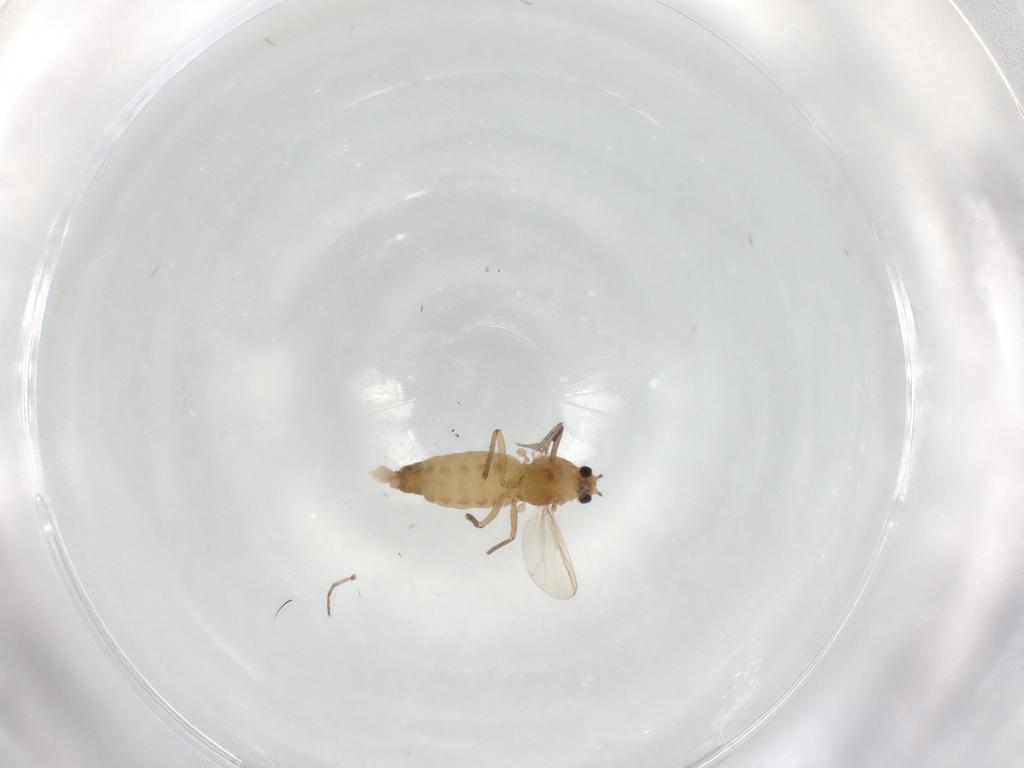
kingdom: Animalia
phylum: Arthropoda
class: Insecta
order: Diptera
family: Chironomidae
